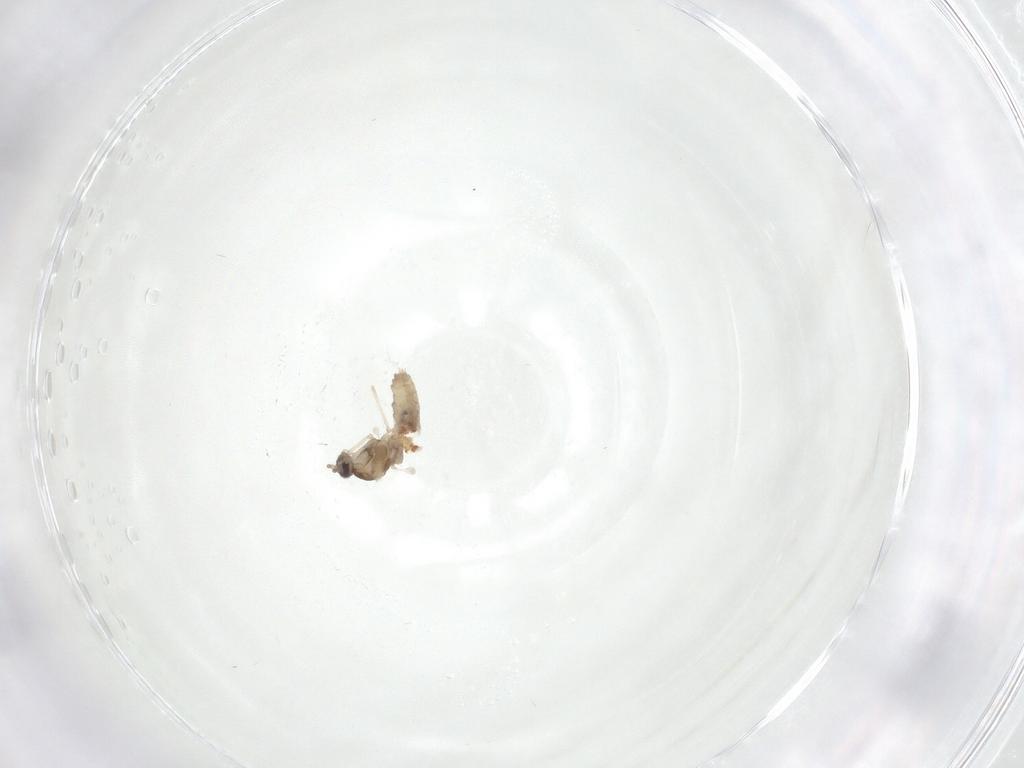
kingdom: Animalia
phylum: Arthropoda
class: Insecta
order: Diptera
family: Cecidomyiidae
